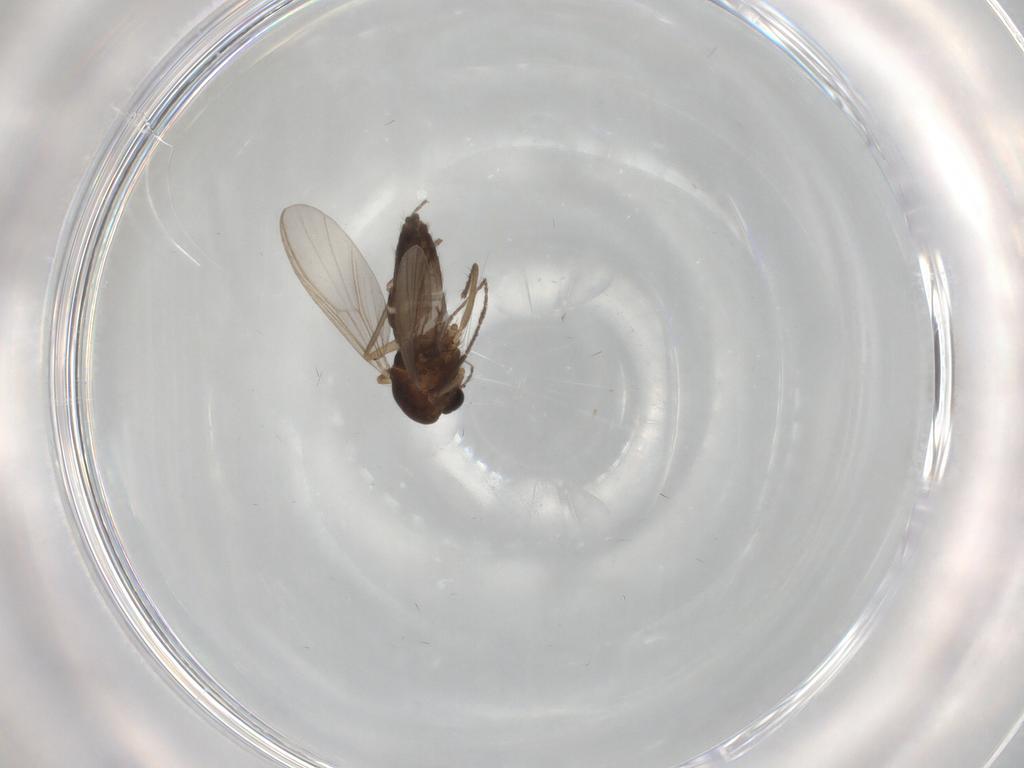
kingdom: Animalia
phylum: Arthropoda
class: Insecta
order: Diptera
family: Chironomidae
